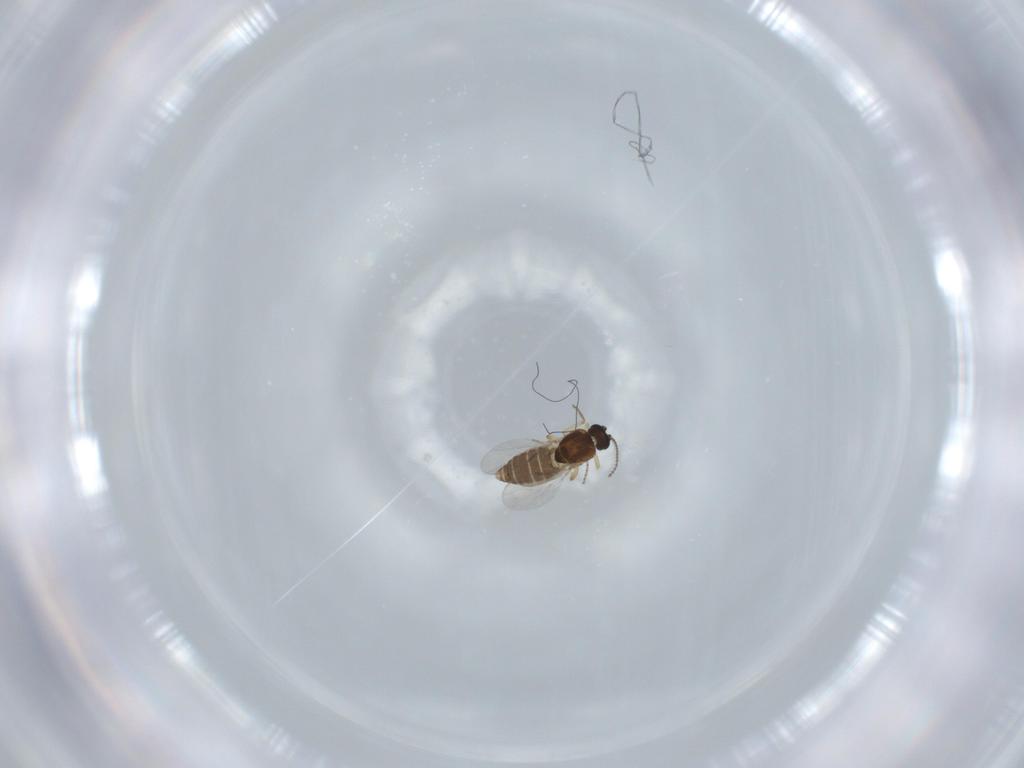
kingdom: Animalia
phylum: Arthropoda
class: Insecta
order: Diptera
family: Ceratopogonidae
